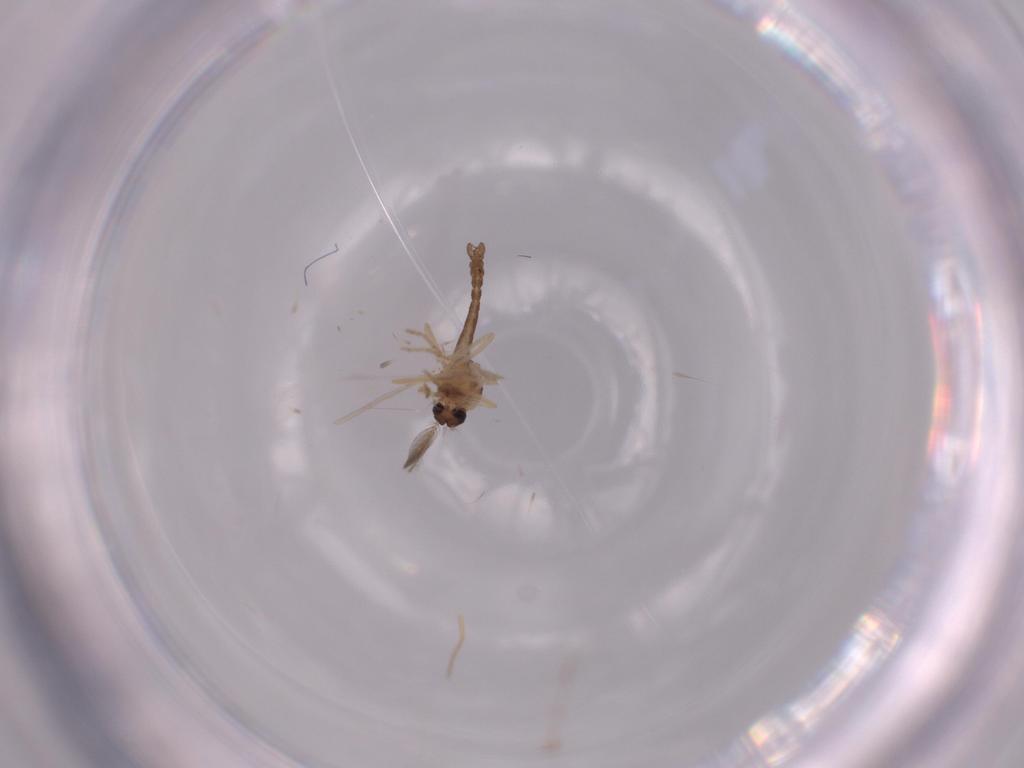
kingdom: Animalia
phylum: Arthropoda
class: Insecta
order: Diptera
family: Ceratopogonidae
